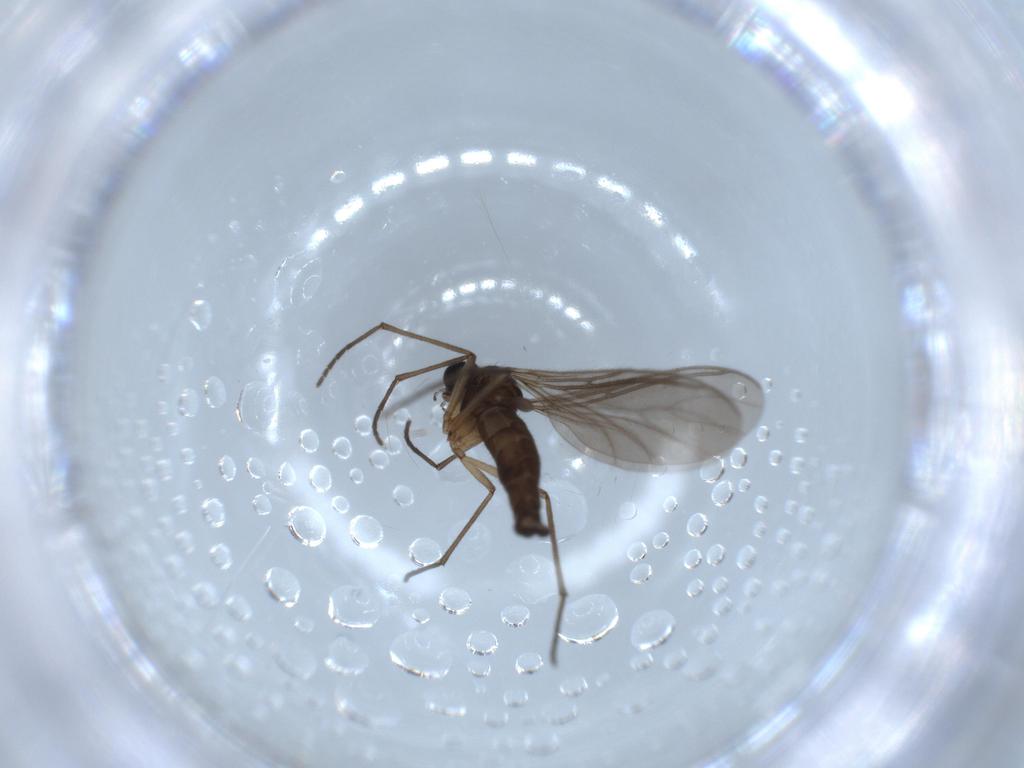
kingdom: Animalia
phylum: Arthropoda
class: Insecta
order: Diptera
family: Sciaridae
